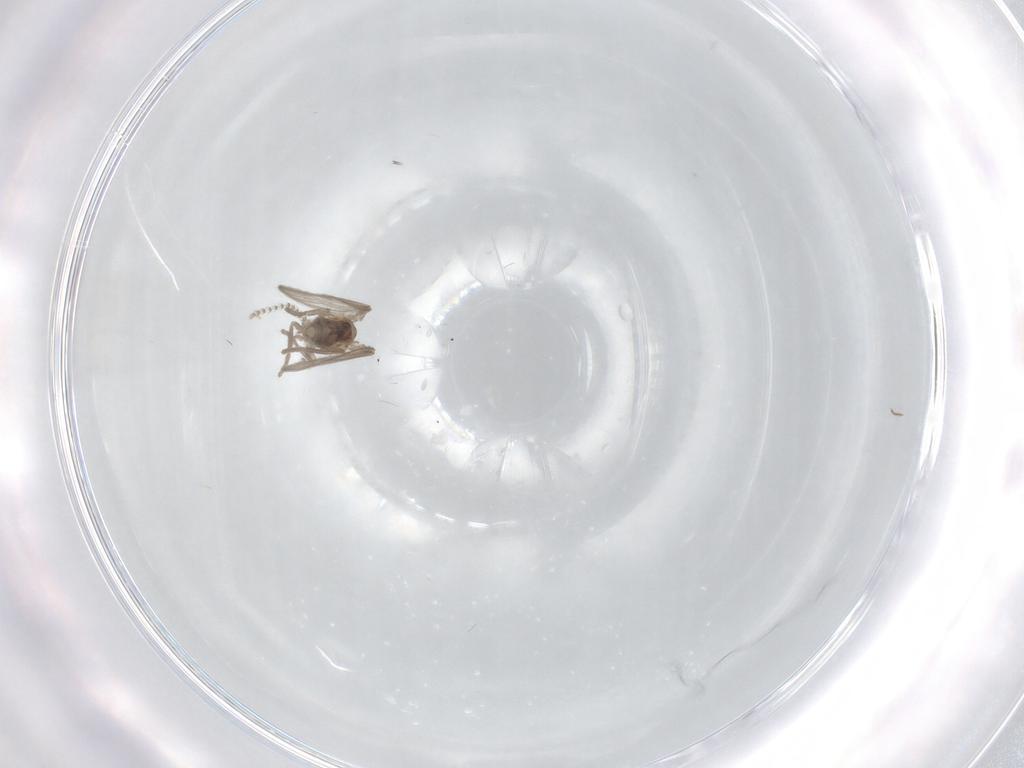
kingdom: Animalia
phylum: Arthropoda
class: Insecta
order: Diptera
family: Psychodidae
